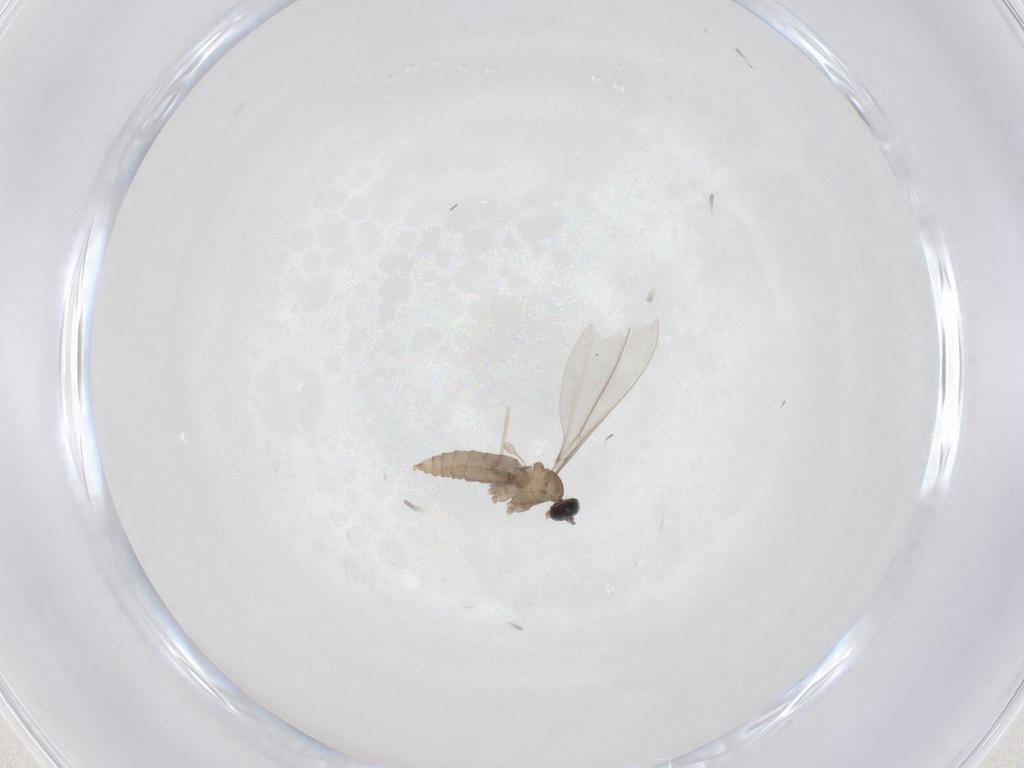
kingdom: Animalia
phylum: Arthropoda
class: Insecta
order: Diptera
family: Cecidomyiidae
